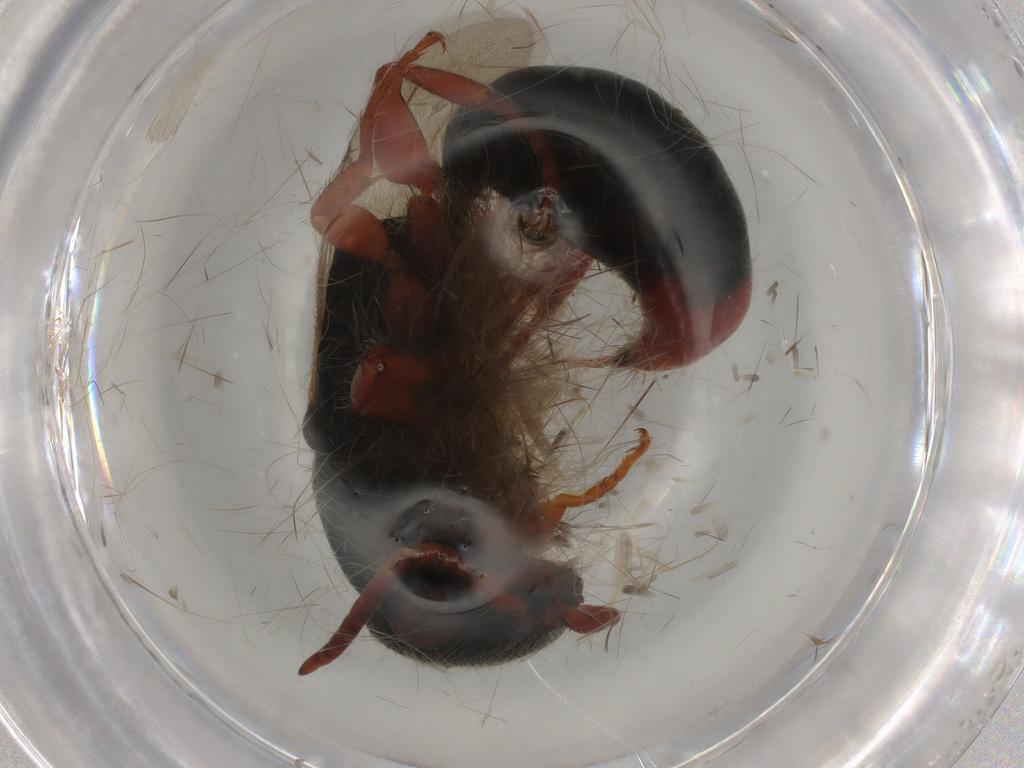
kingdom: Animalia
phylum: Arthropoda
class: Insecta
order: Hymenoptera
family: Bethylidae
